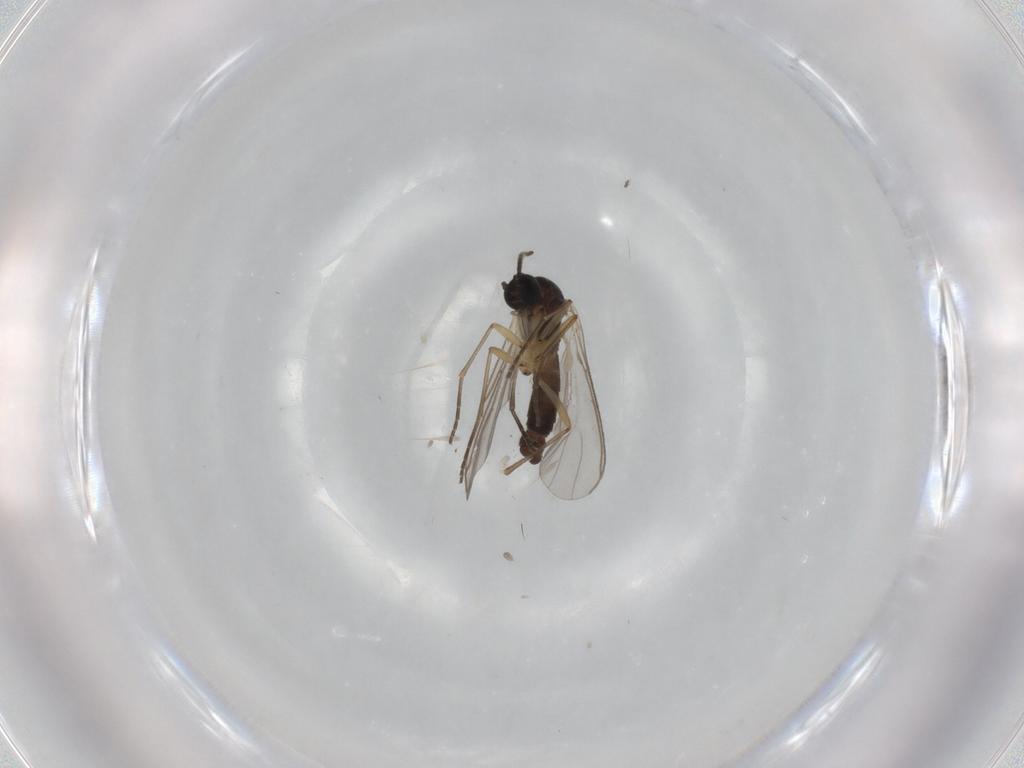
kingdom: Animalia
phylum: Arthropoda
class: Insecta
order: Diptera
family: Sciaridae
